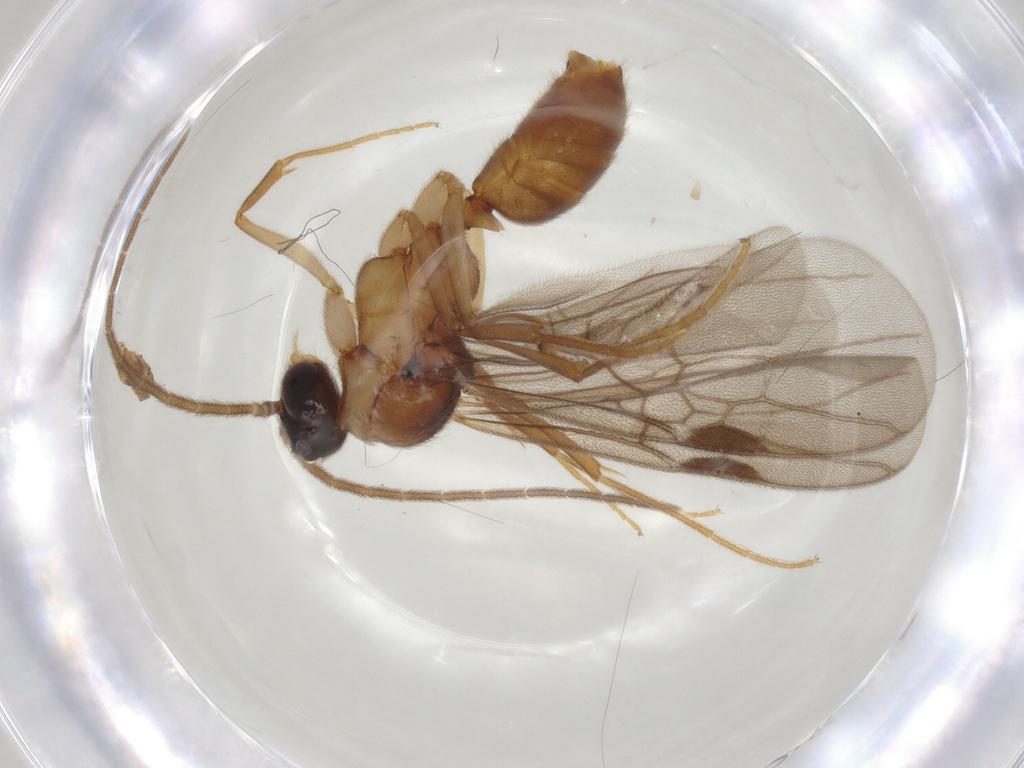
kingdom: Animalia
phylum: Arthropoda
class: Insecta
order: Hymenoptera
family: Formicidae
